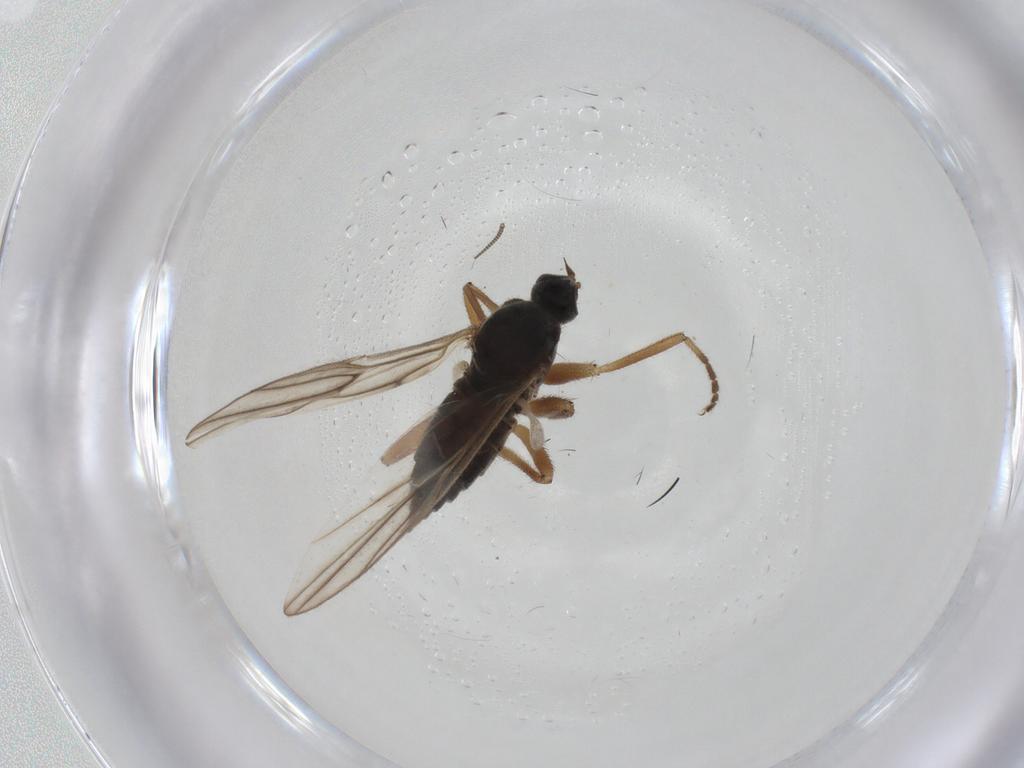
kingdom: Animalia
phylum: Arthropoda
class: Insecta
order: Diptera
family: Hybotidae
